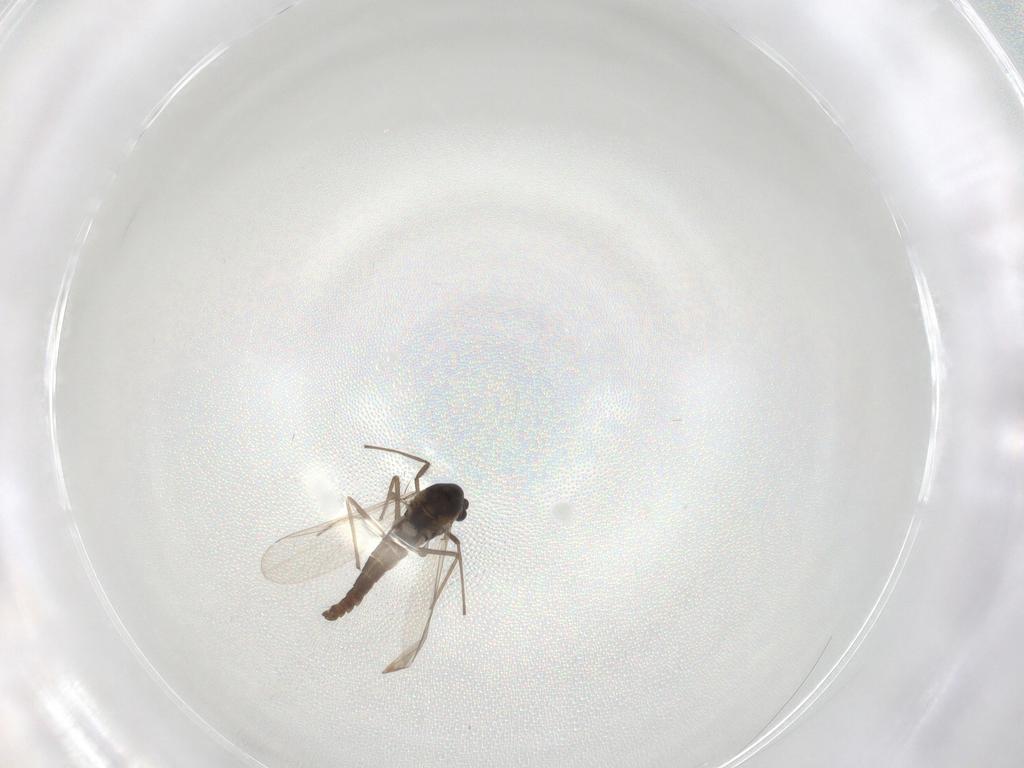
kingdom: Animalia
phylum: Arthropoda
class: Insecta
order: Diptera
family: Chironomidae
